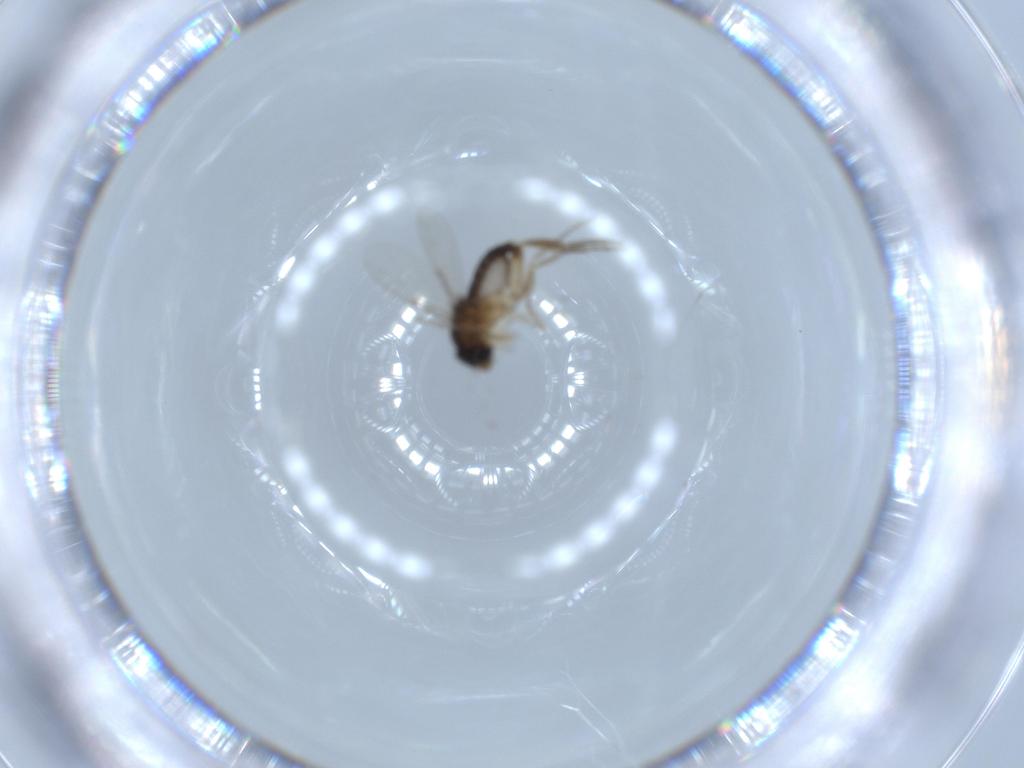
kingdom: Animalia
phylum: Arthropoda
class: Insecta
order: Diptera
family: Phoridae
